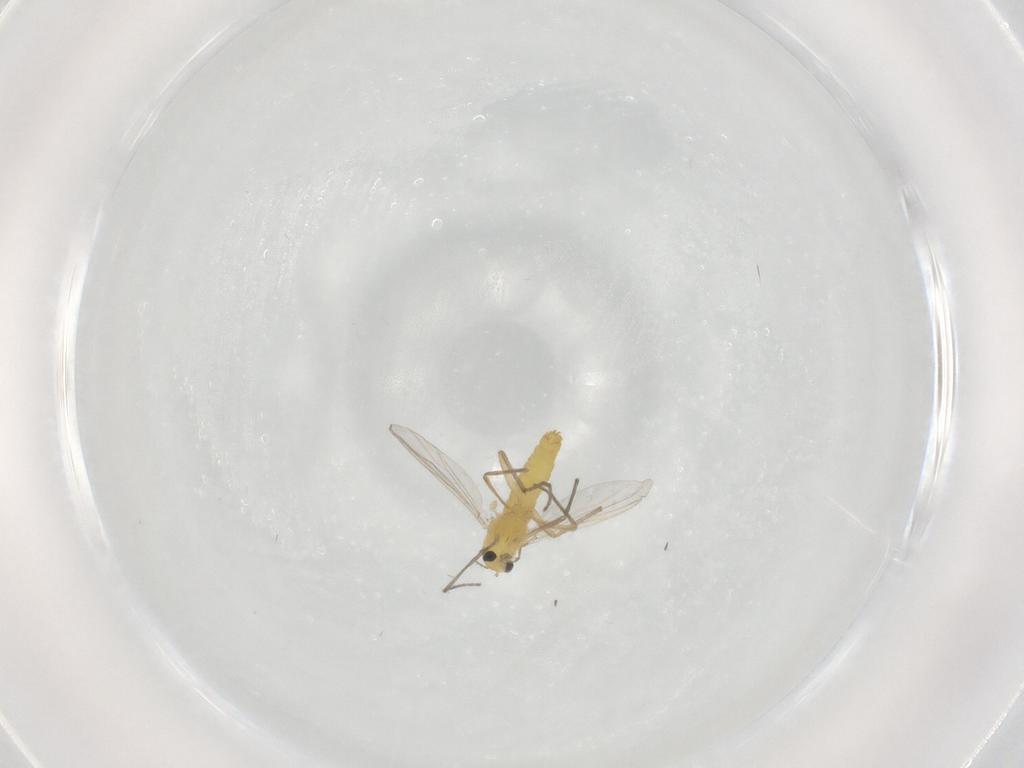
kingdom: Animalia
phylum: Arthropoda
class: Insecta
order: Diptera
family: Chironomidae
